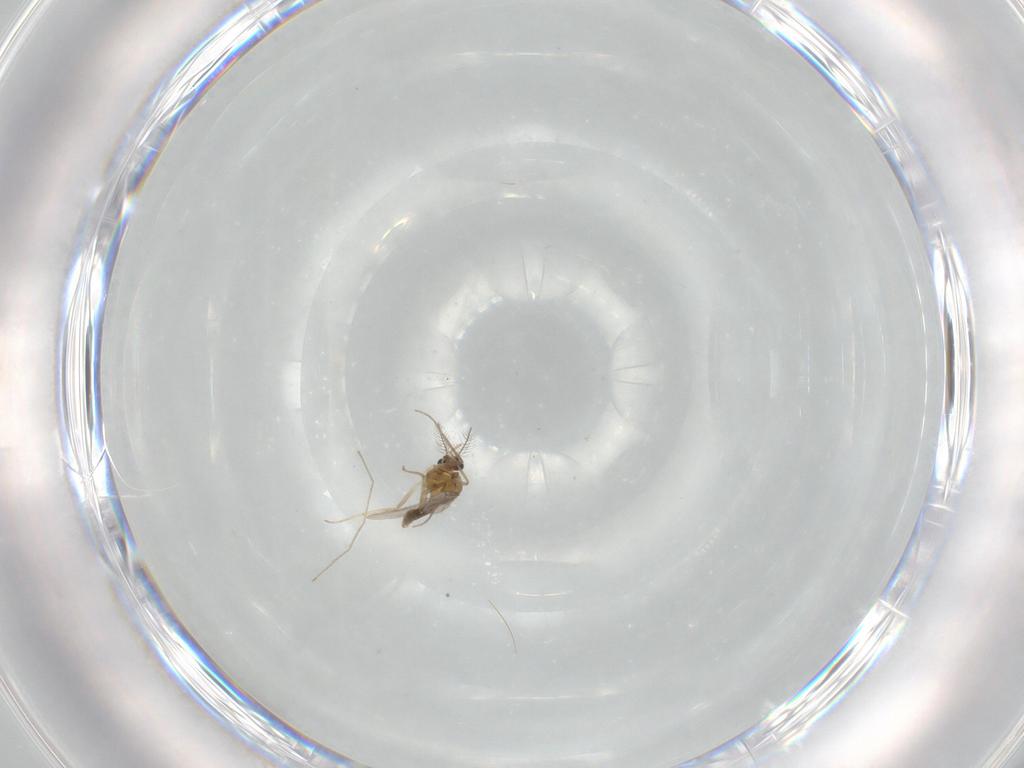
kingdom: Animalia
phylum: Arthropoda
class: Insecta
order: Diptera
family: Chironomidae
